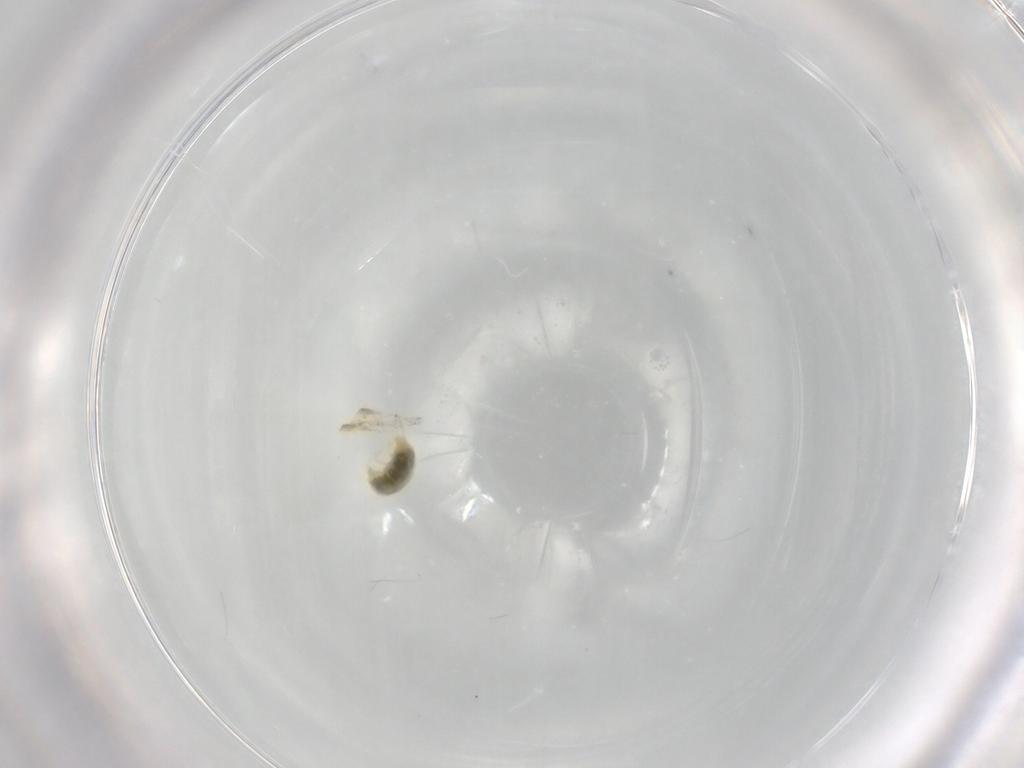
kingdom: Animalia
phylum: Arthropoda
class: Arachnida
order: Trombidiformes
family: Tetranychidae
